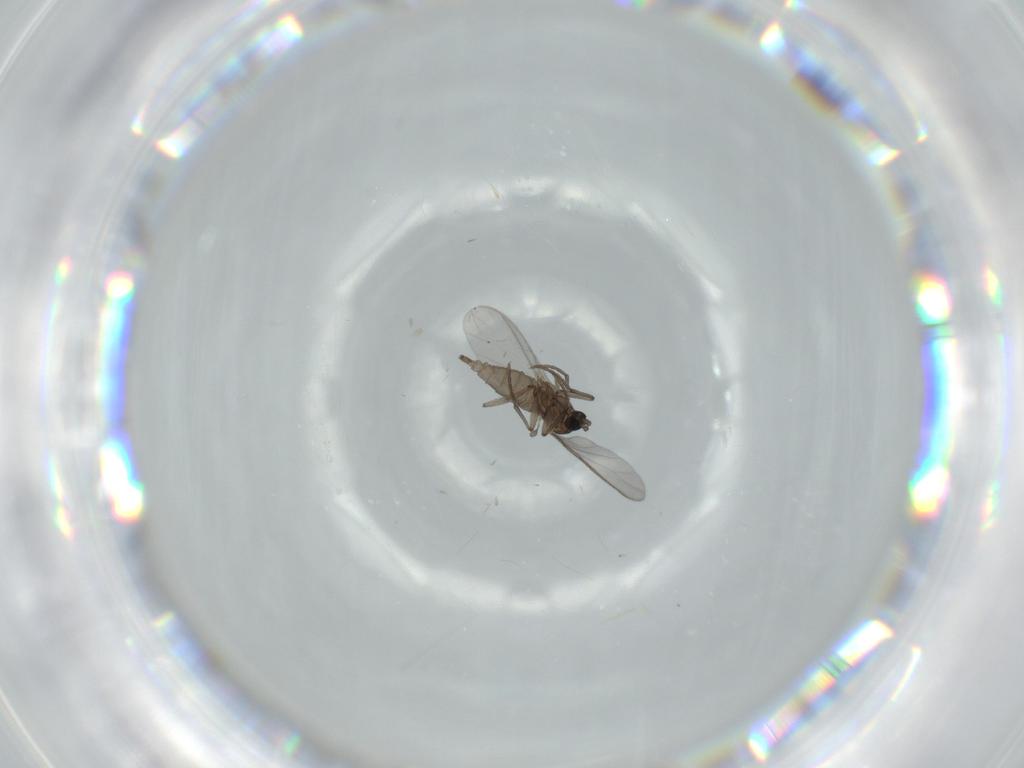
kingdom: Animalia
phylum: Arthropoda
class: Insecta
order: Diptera
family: Sciaridae
